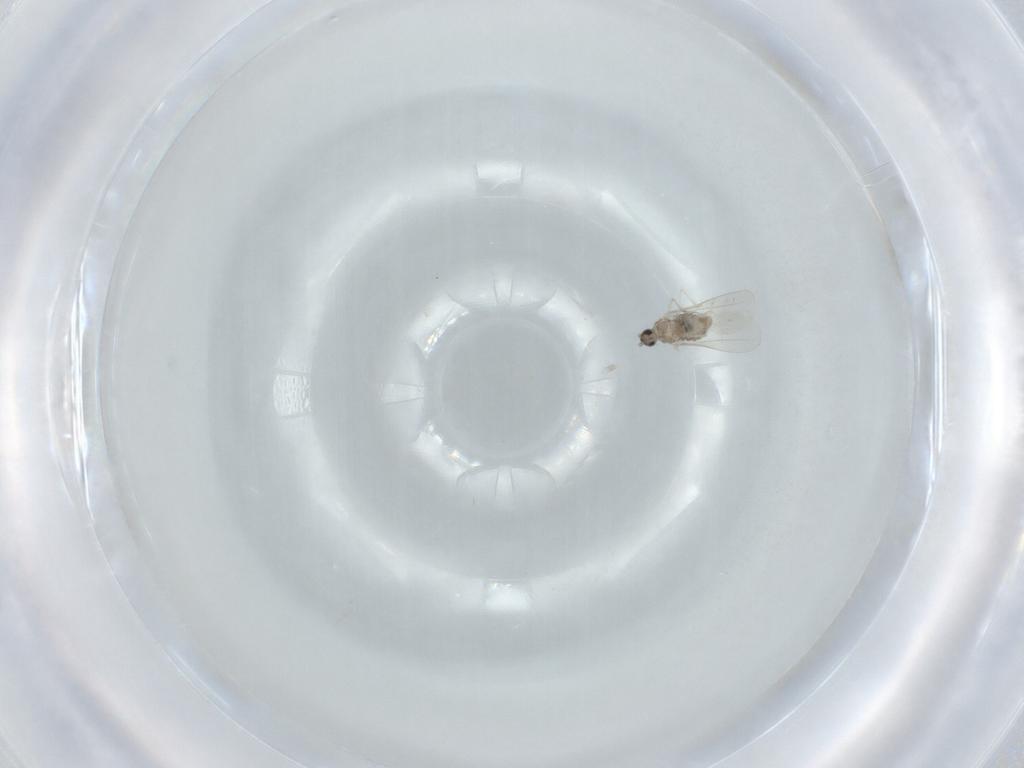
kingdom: Animalia
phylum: Arthropoda
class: Insecta
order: Diptera
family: Cecidomyiidae
